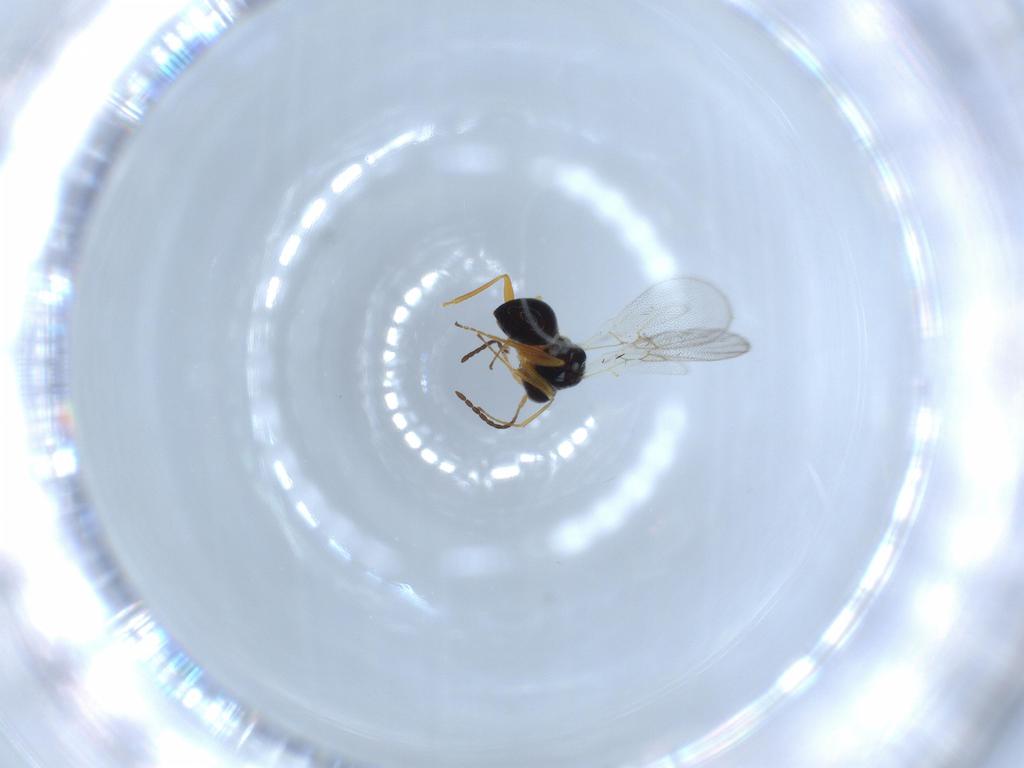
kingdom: Animalia
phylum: Arthropoda
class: Insecta
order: Hymenoptera
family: Figitidae
